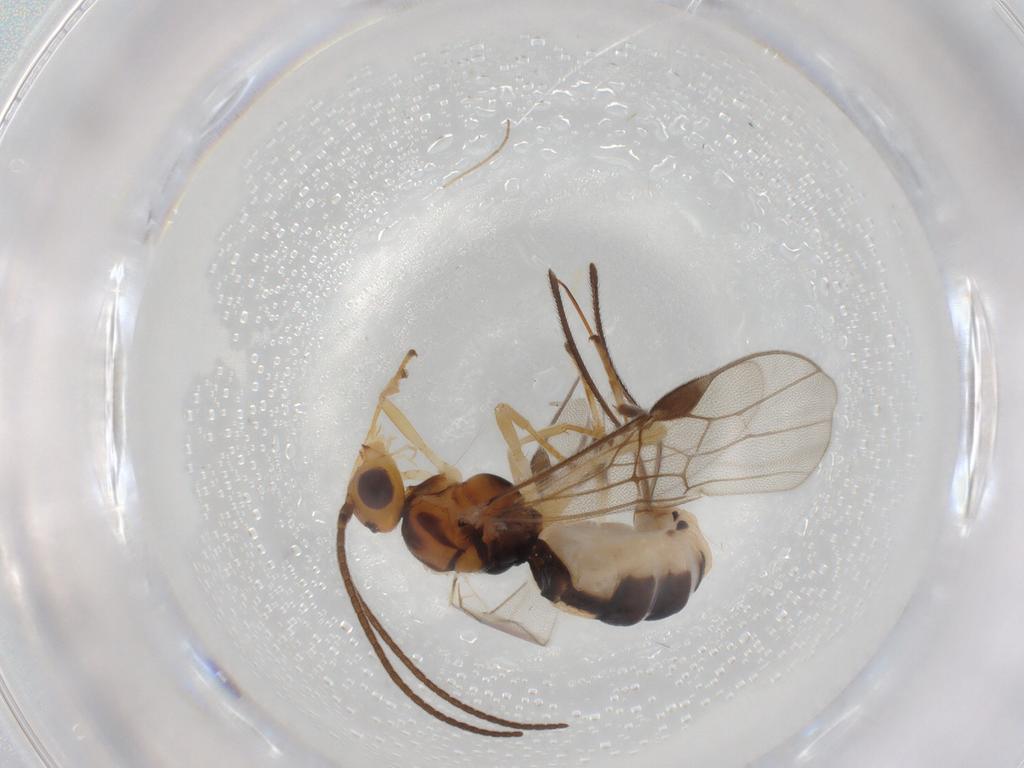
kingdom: Animalia
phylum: Arthropoda
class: Insecta
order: Hymenoptera
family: Braconidae
